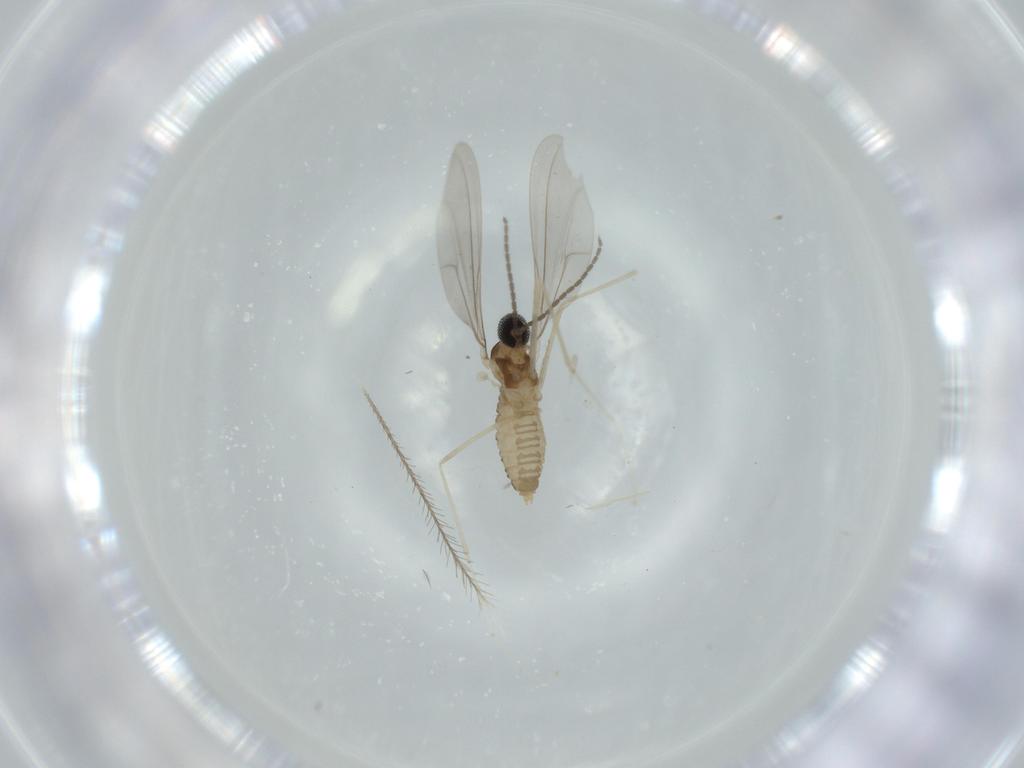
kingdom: Animalia
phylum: Arthropoda
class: Insecta
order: Diptera
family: Cecidomyiidae
